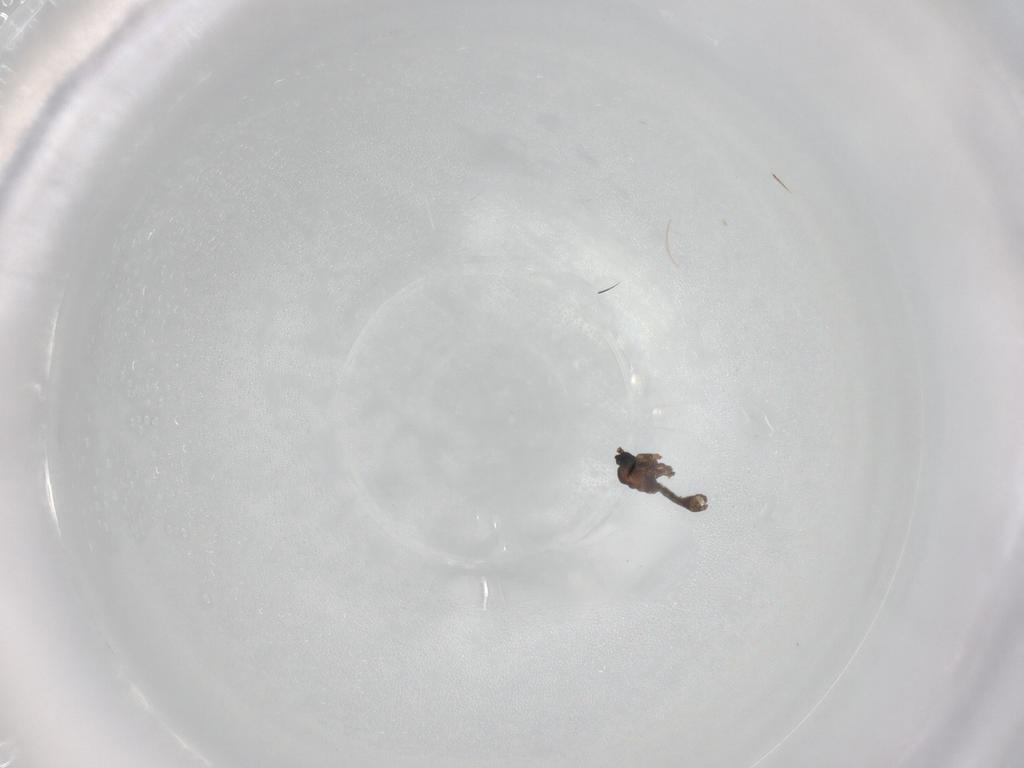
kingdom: Animalia
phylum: Arthropoda
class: Insecta
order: Diptera
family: Sciaridae
